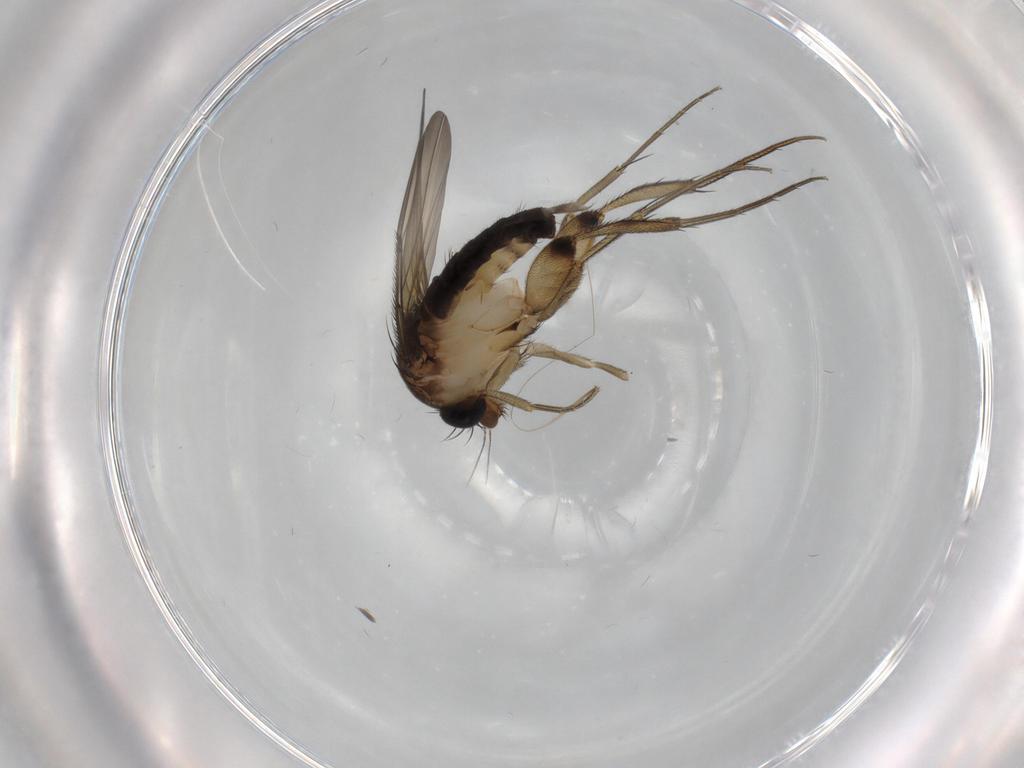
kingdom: Animalia
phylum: Arthropoda
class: Insecta
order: Diptera
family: Phoridae
